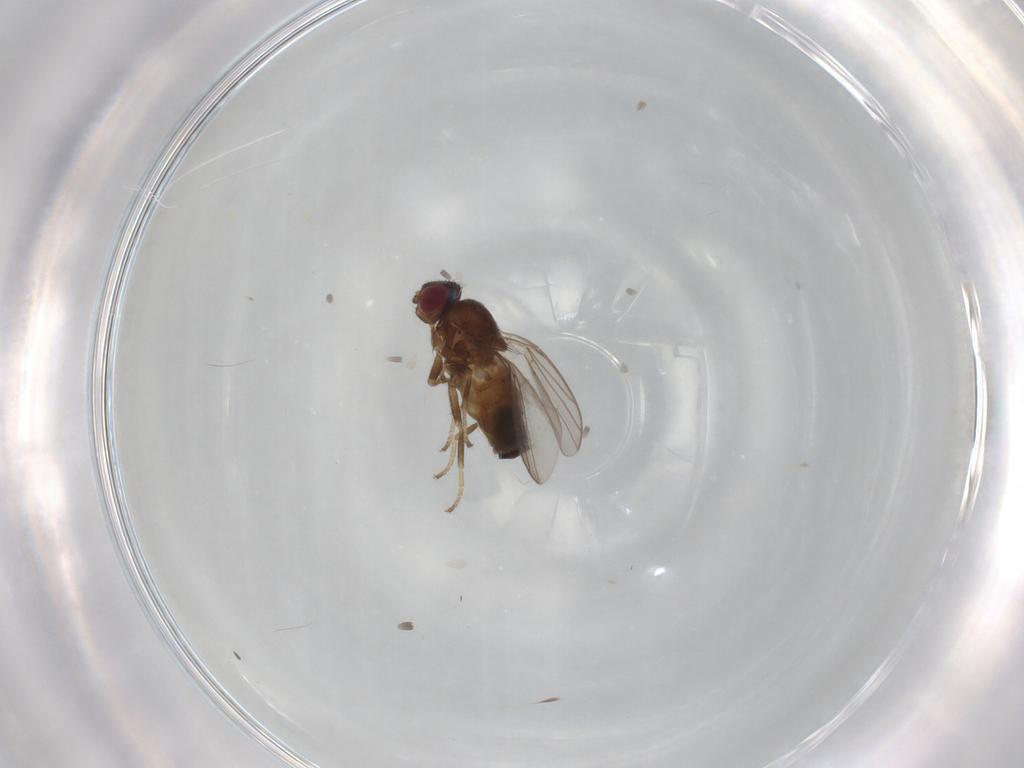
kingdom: Animalia
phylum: Arthropoda
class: Insecta
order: Diptera
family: Chloropidae
